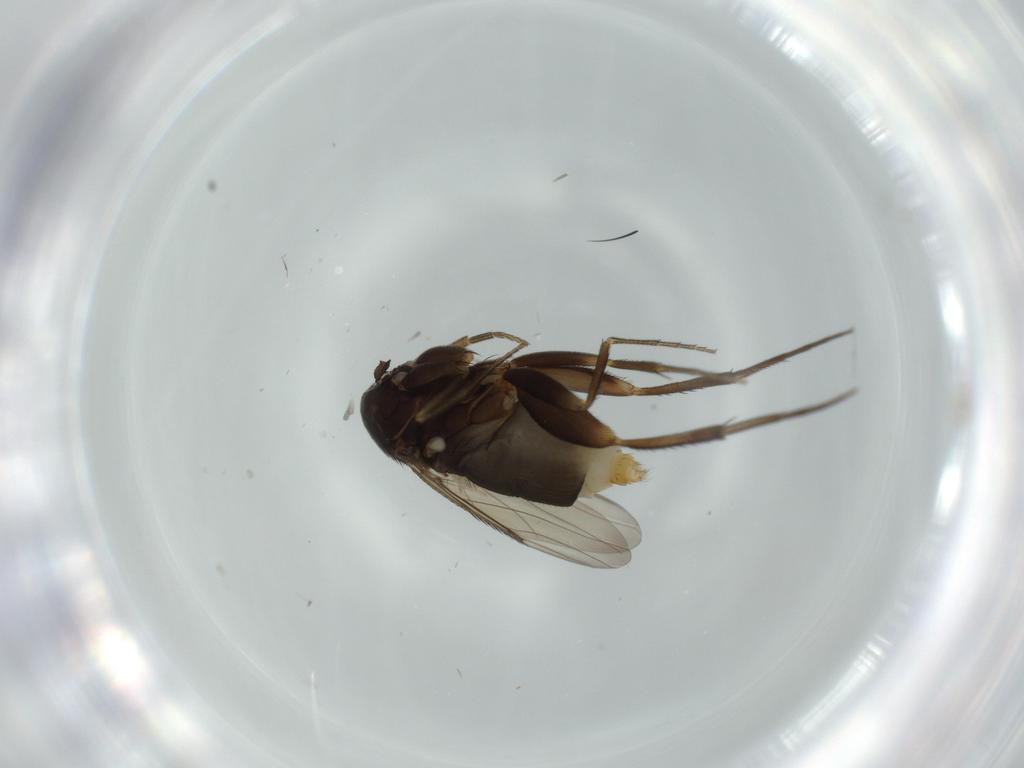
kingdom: Animalia
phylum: Arthropoda
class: Insecta
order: Diptera
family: Phoridae
